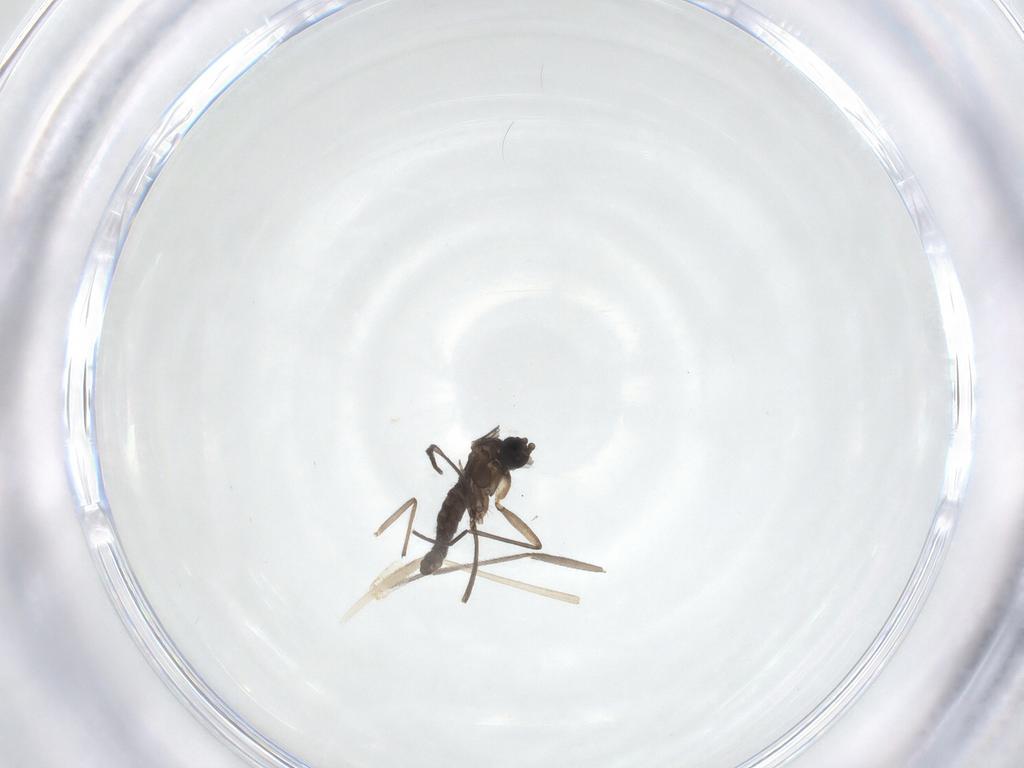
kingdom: Animalia
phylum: Arthropoda
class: Insecta
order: Diptera
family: Sciaridae
